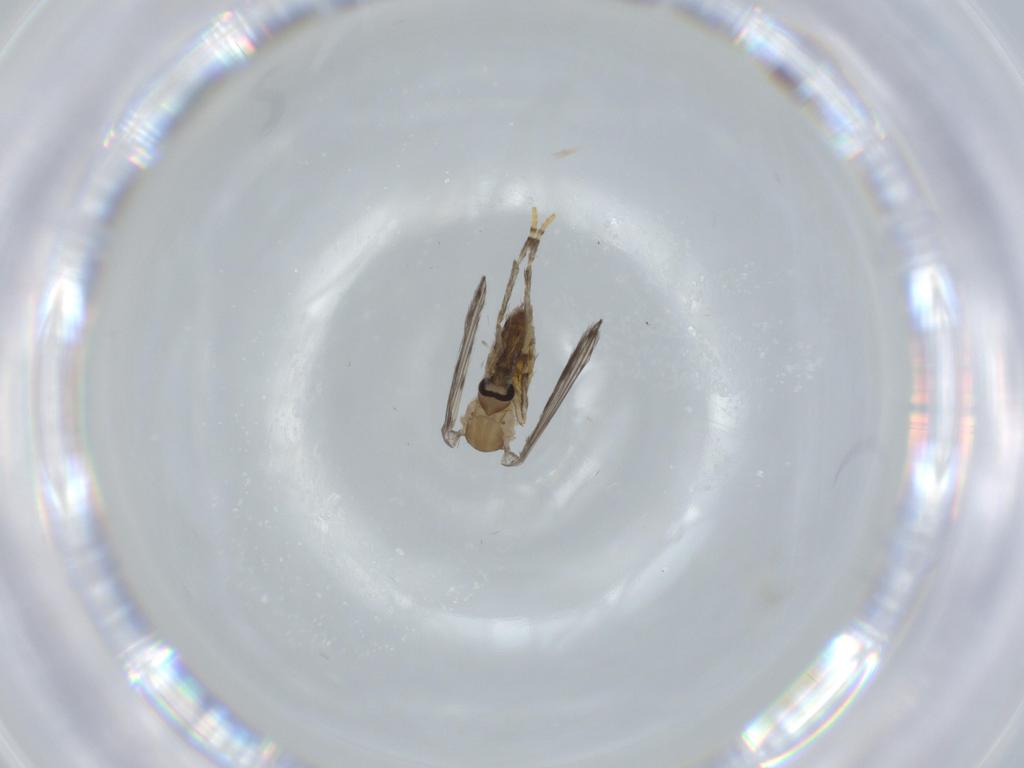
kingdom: Animalia
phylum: Arthropoda
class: Insecta
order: Diptera
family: Psychodidae
